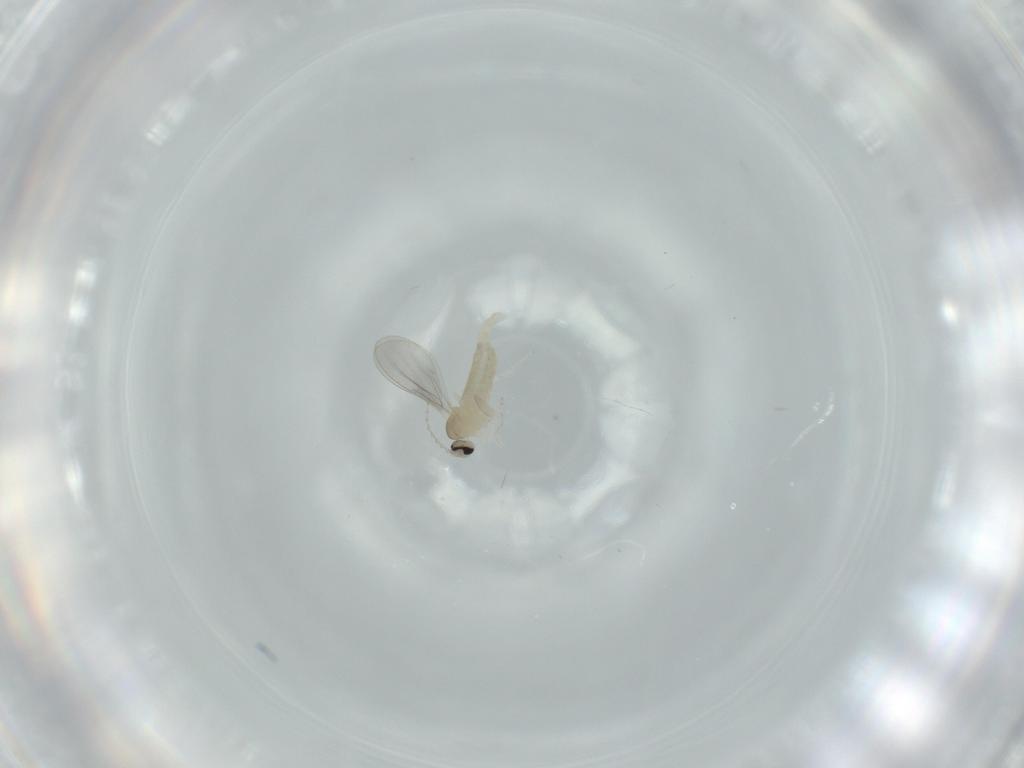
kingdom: Animalia
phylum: Arthropoda
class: Insecta
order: Diptera
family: Cecidomyiidae
